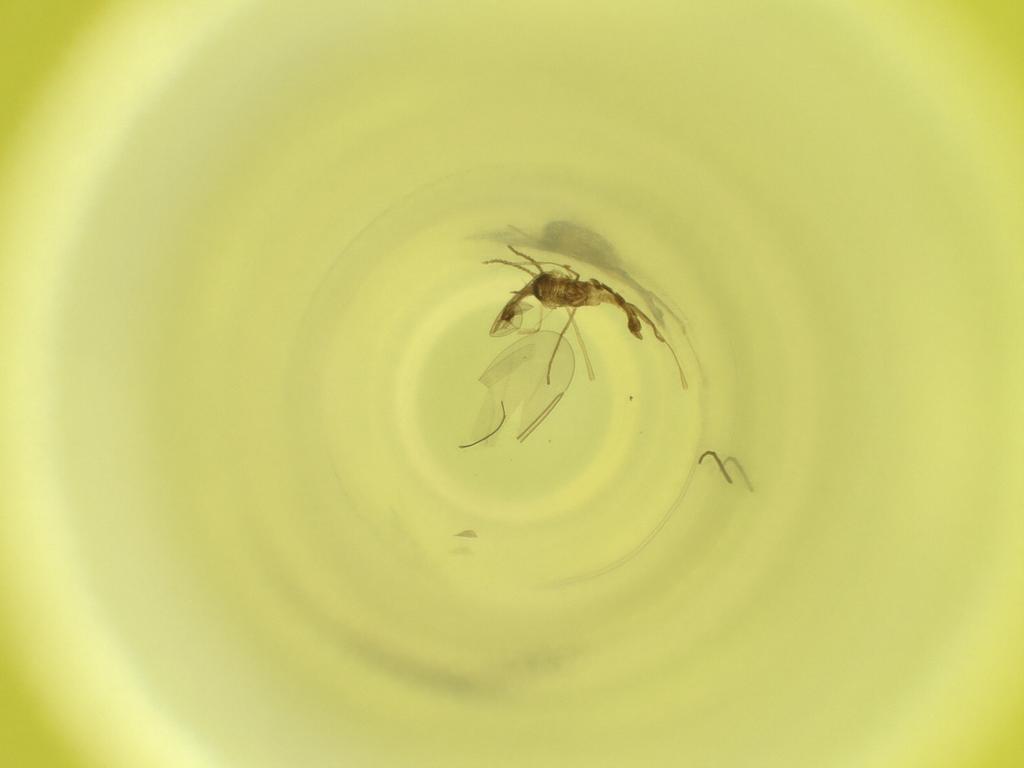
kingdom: Animalia
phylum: Arthropoda
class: Insecta
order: Diptera
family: Cecidomyiidae
